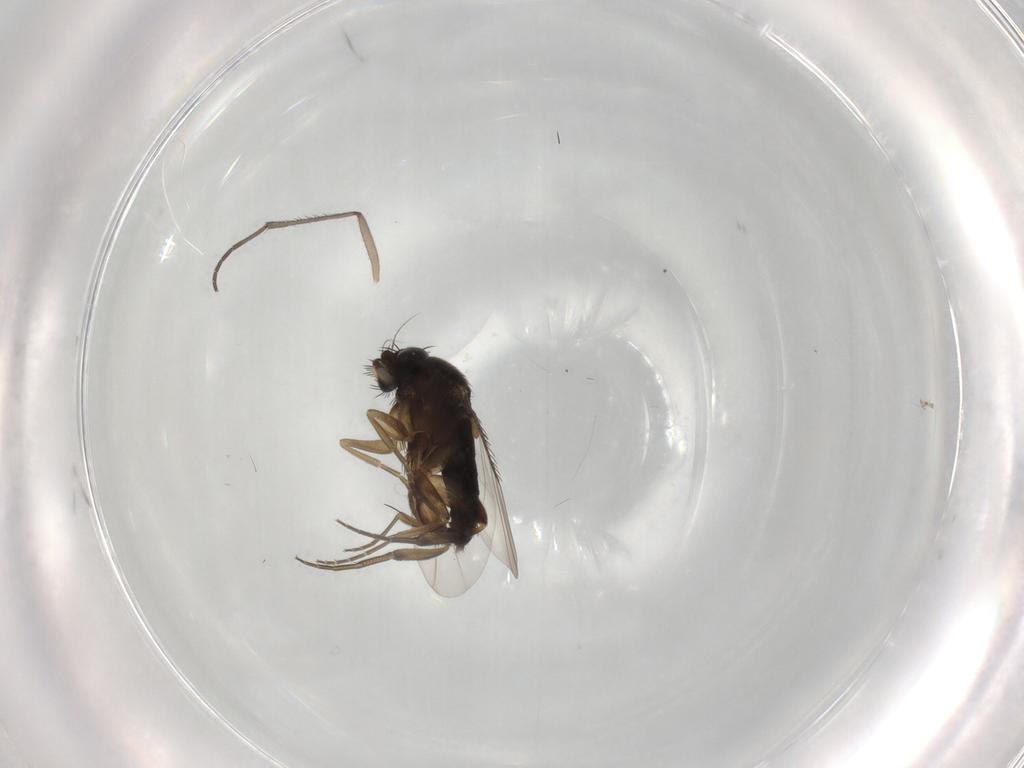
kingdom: Animalia
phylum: Arthropoda
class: Insecta
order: Diptera
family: Phoridae
